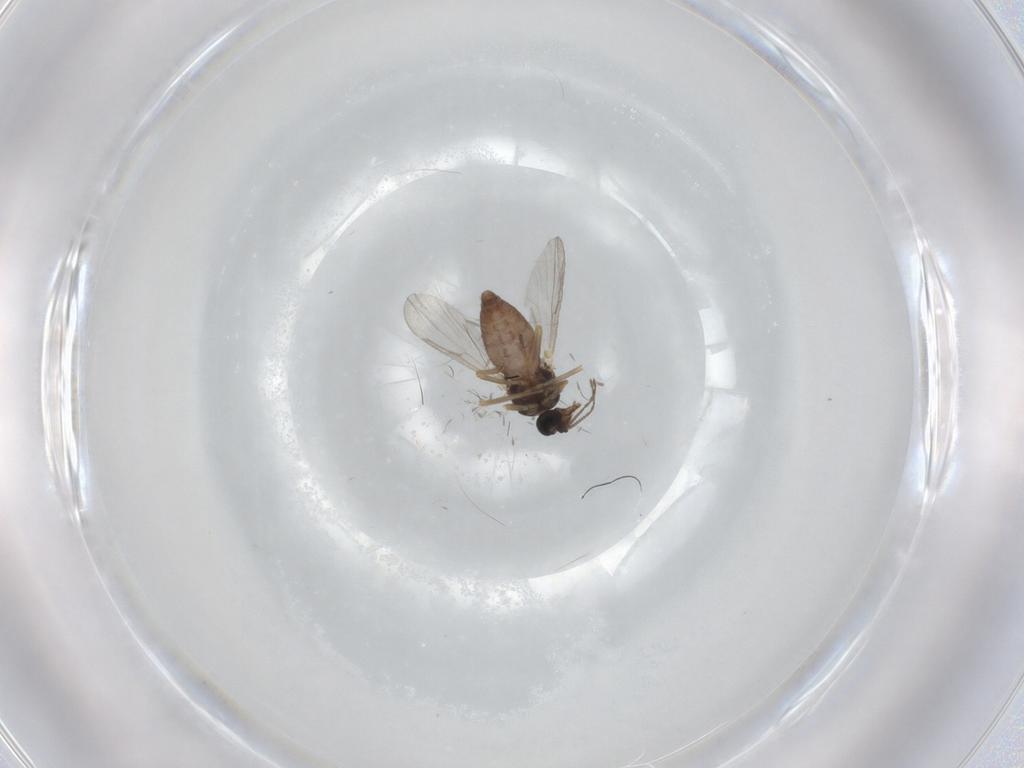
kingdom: Animalia
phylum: Arthropoda
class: Insecta
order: Diptera
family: Ceratopogonidae
